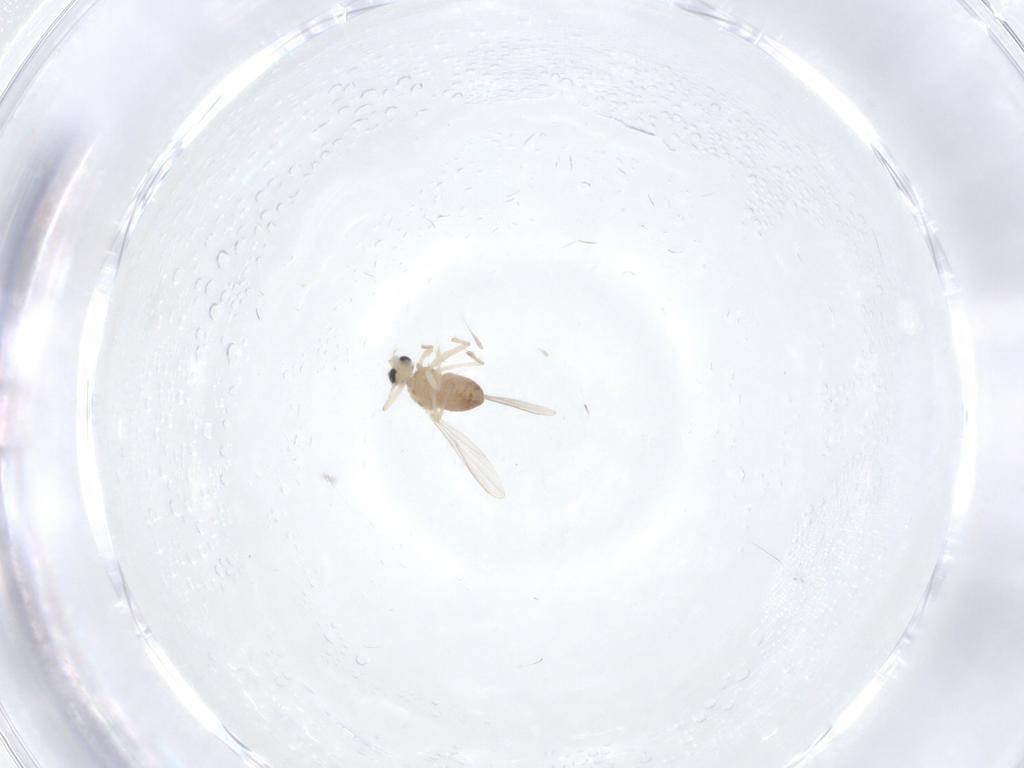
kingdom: Animalia
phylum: Arthropoda
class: Insecta
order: Diptera
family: Chironomidae
